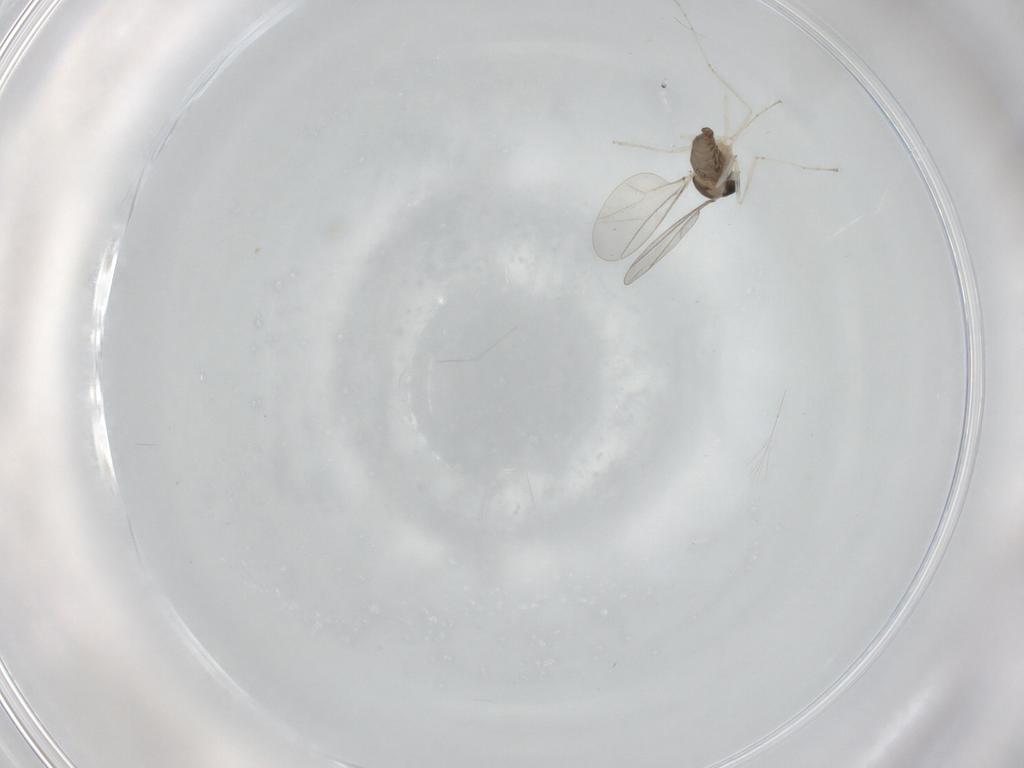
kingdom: Animalia
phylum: Arthropoda
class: Insecta
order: Diptera
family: Cecidomyiidae
